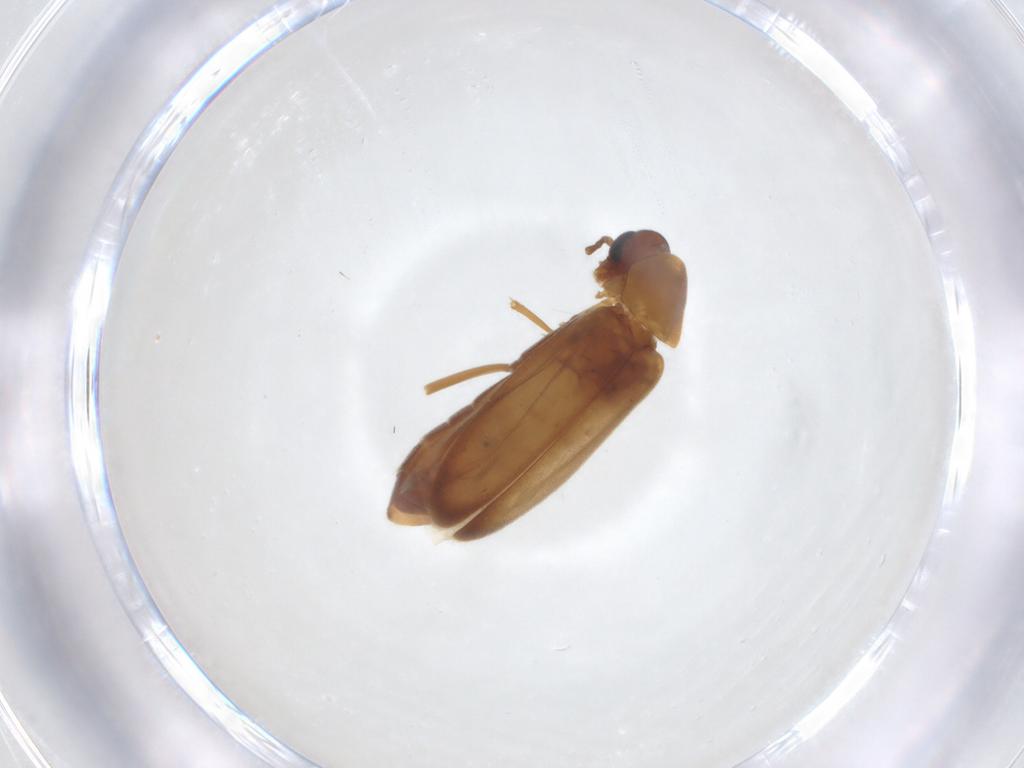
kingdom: Animalia
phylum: Arthropoda
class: Insecta
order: Coleoptera
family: Scraptiidae
